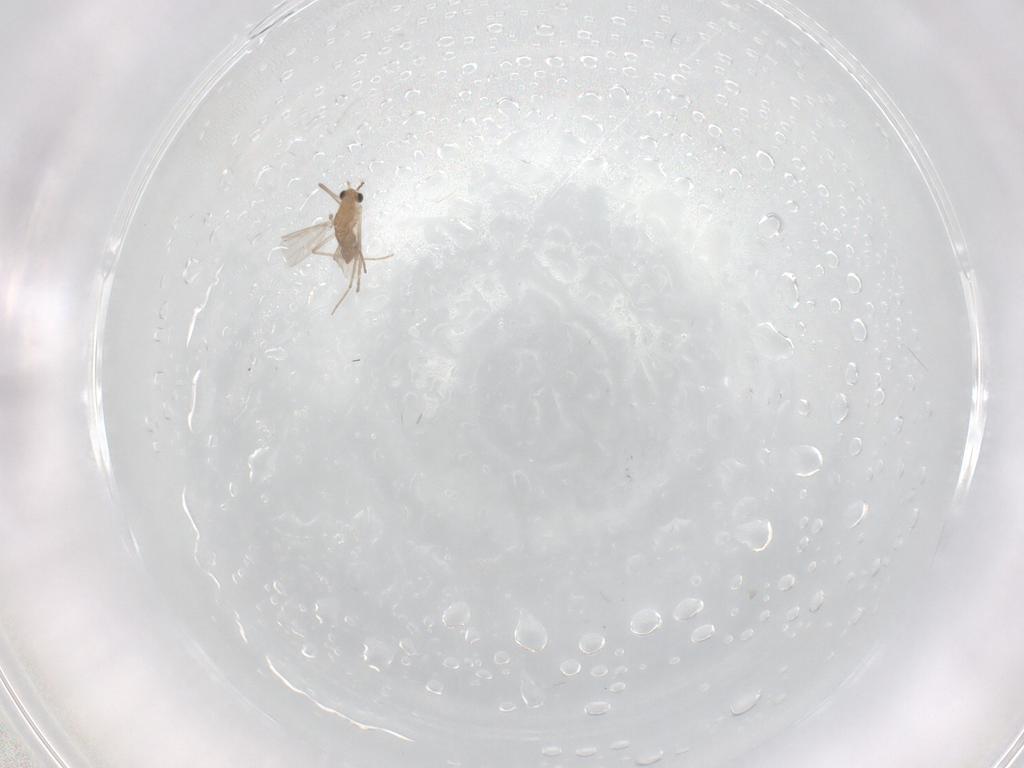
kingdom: Animalia
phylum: Arthropoda
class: Insecta
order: Diptera
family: Chironomidae
